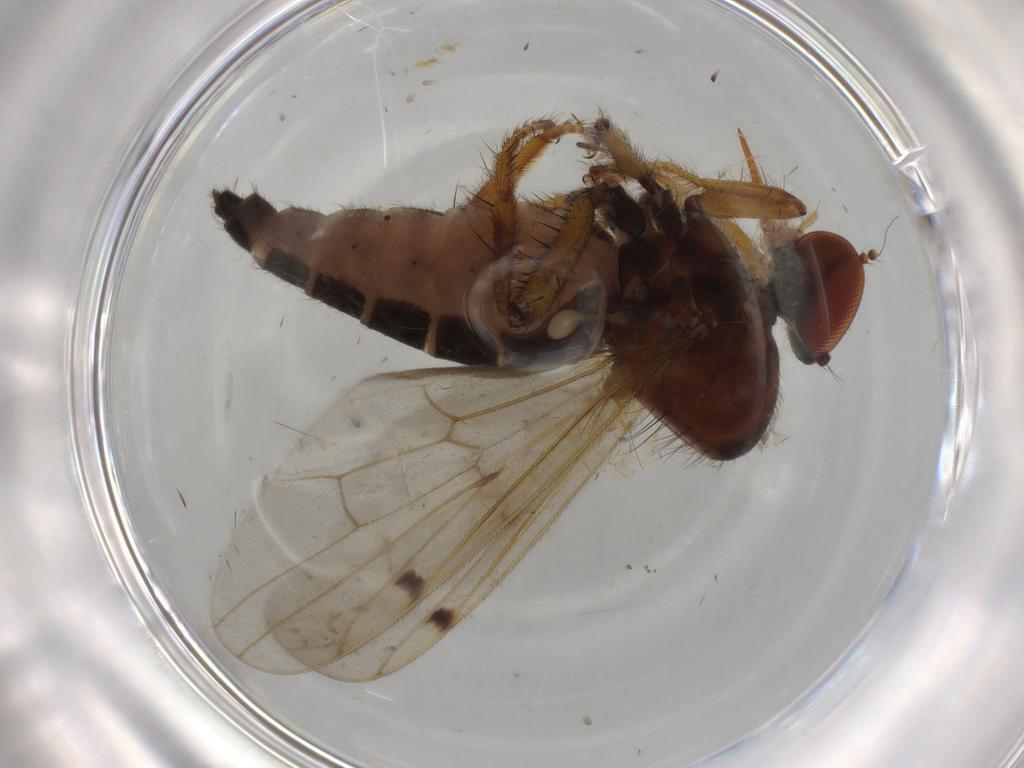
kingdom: Animalia
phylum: Arthropoda
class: Insecta
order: Diptera
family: Hybotidae
